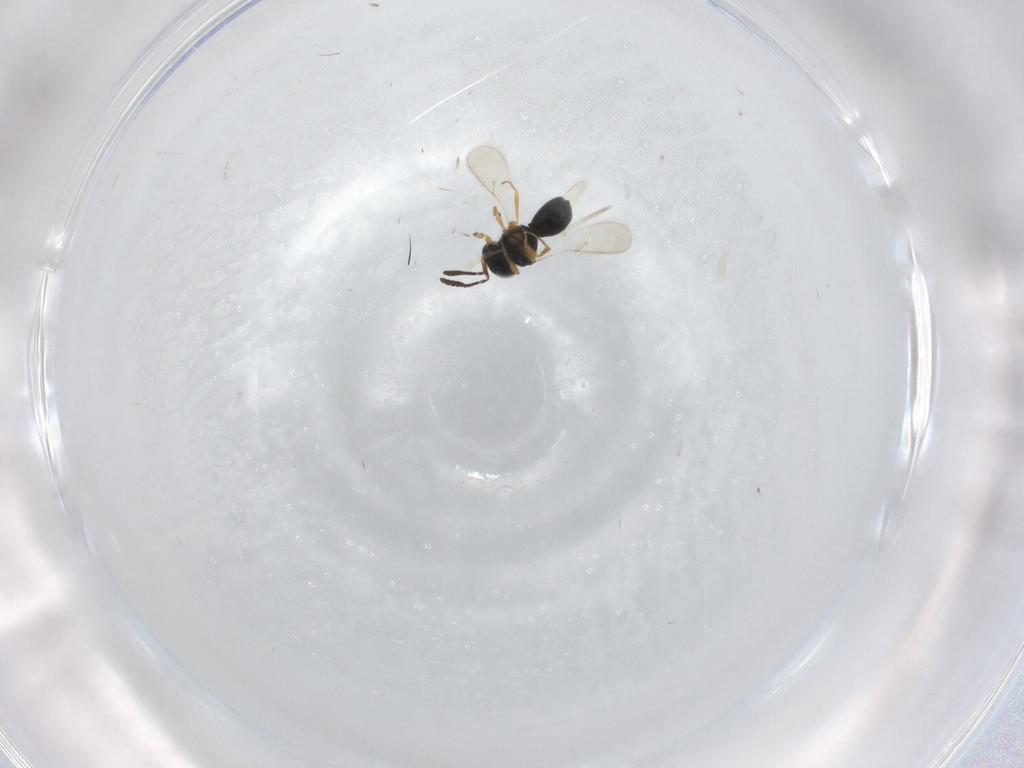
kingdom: Animalia
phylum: Arthropoda
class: Insecta
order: Hymenoptera
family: Scelionidae
